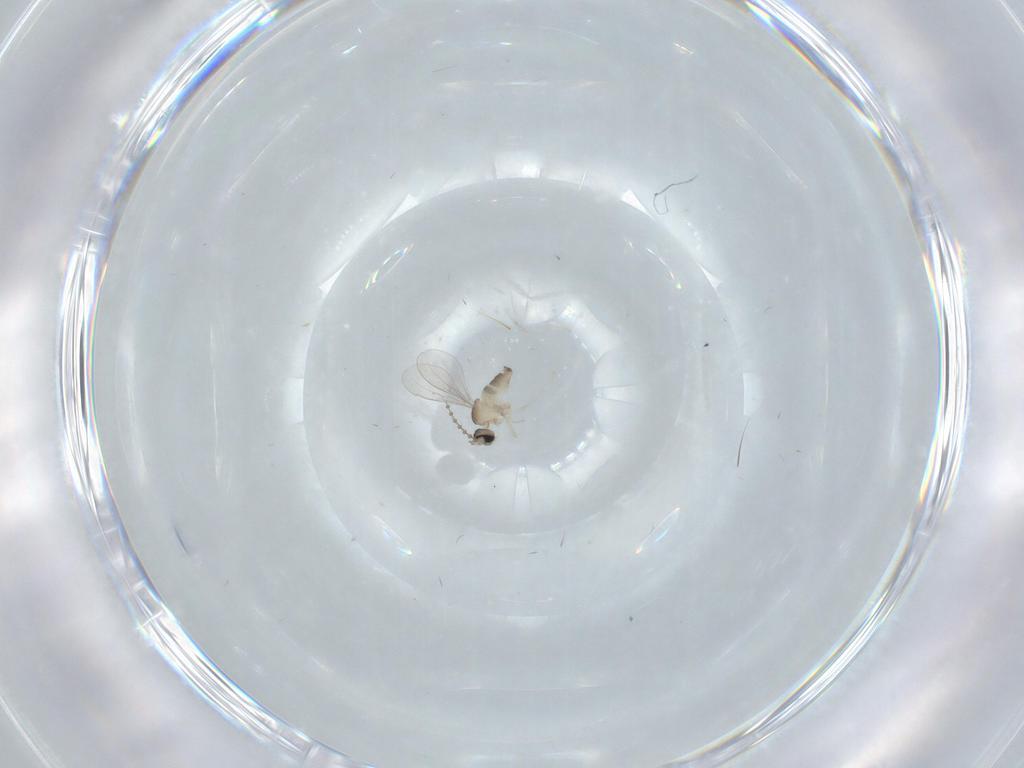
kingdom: Animalia
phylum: Arthropoda
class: Insecta
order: Diptera
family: Cecidomyiidae
